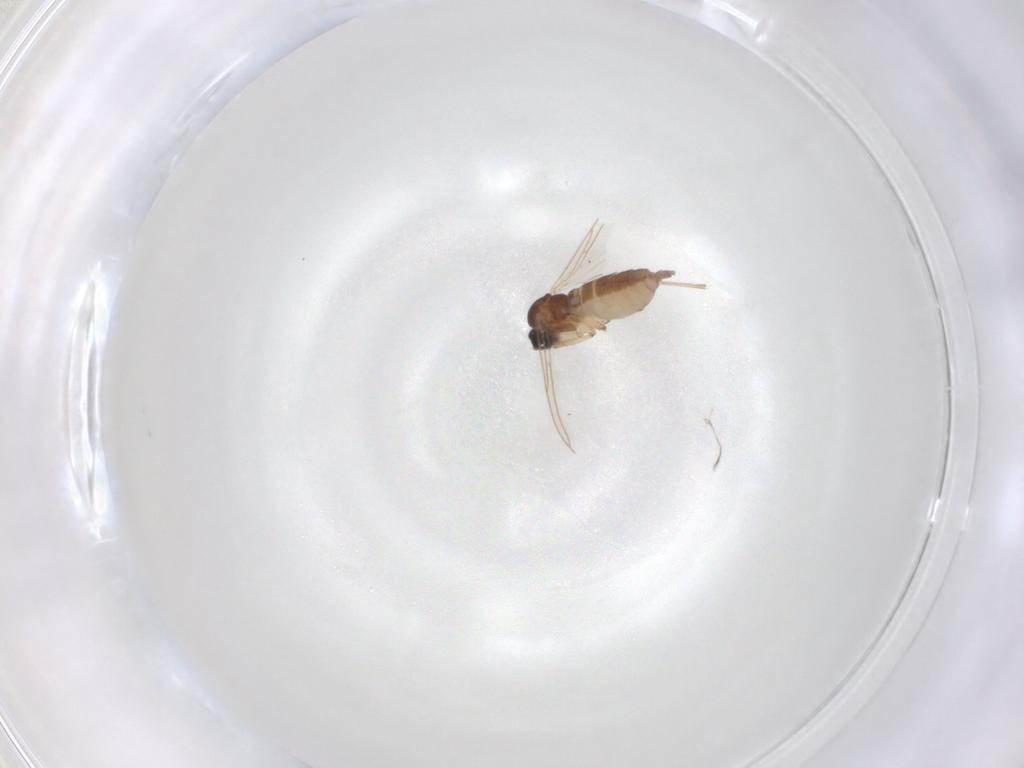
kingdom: Animalia
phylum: Arthropoda
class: Insecta
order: Diptera
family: Sciaridae
